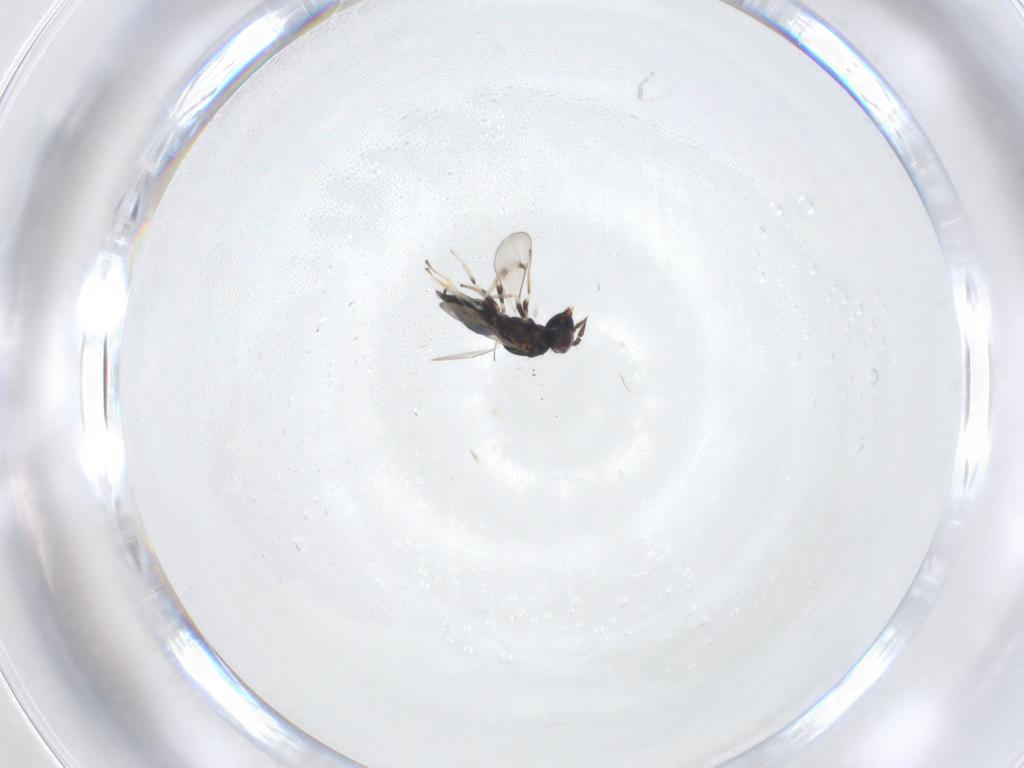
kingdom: Animalia
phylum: Arthropoda
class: Insecta
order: Hymenoptera
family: Eulophidae
